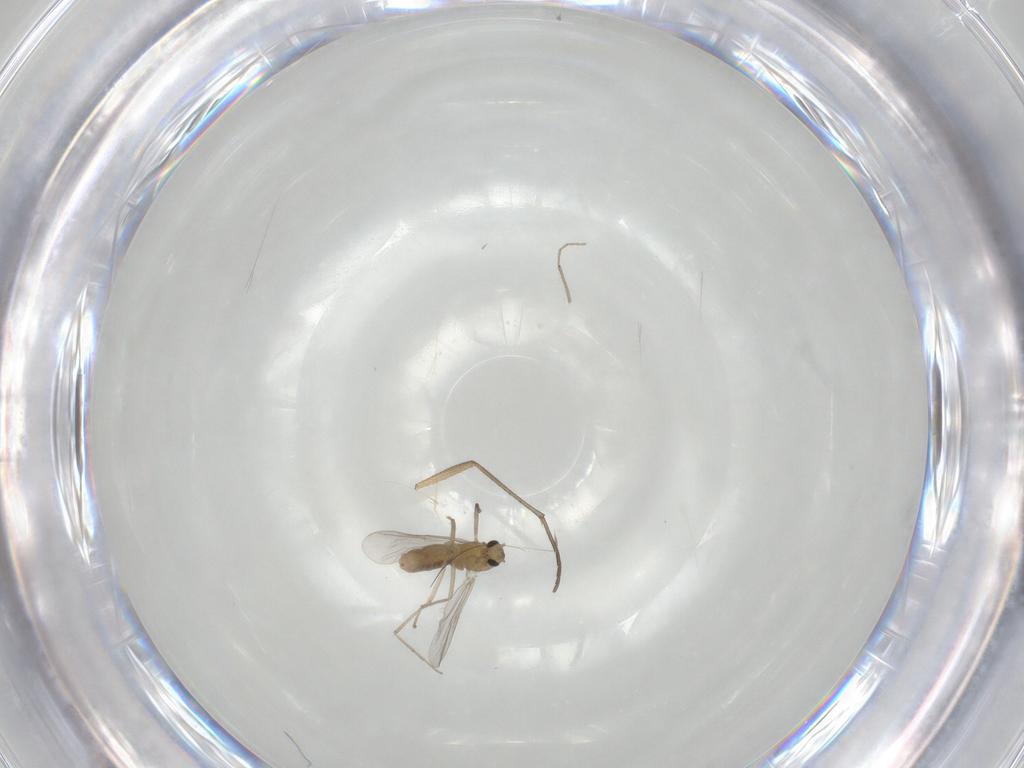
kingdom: Animalia
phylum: Arthropoda
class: Insecta
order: Diptera
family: Chironomidae
